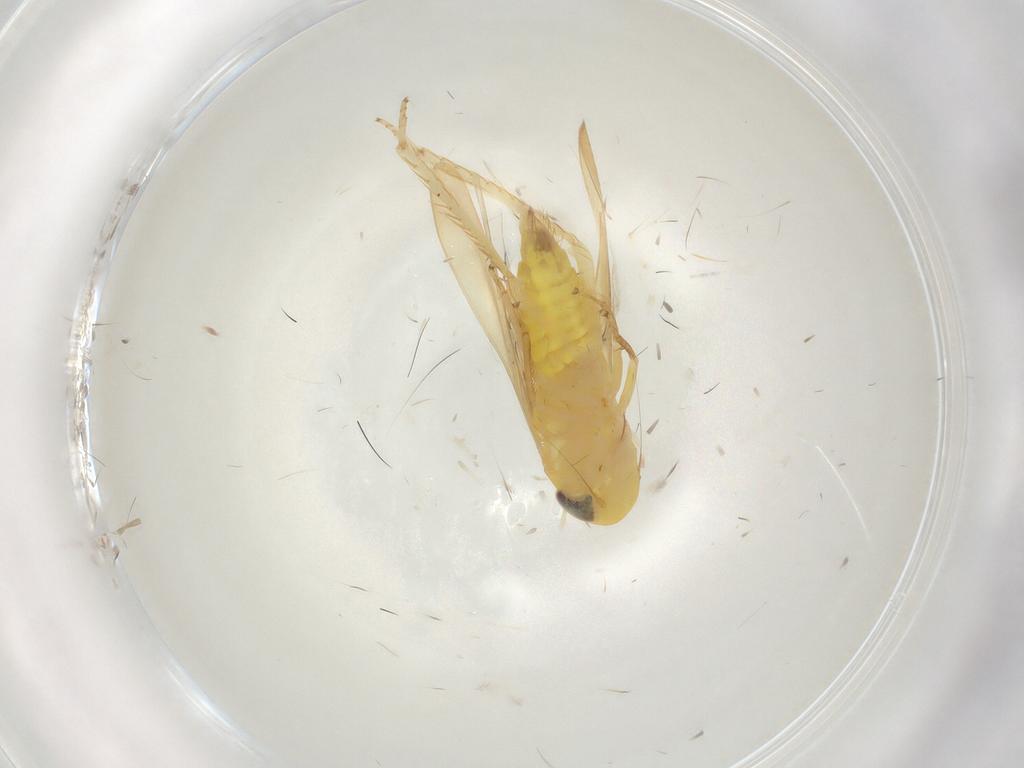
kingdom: Animalia
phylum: Arthropoda
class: Insecta
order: Hemiptera
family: Cicadellidae
